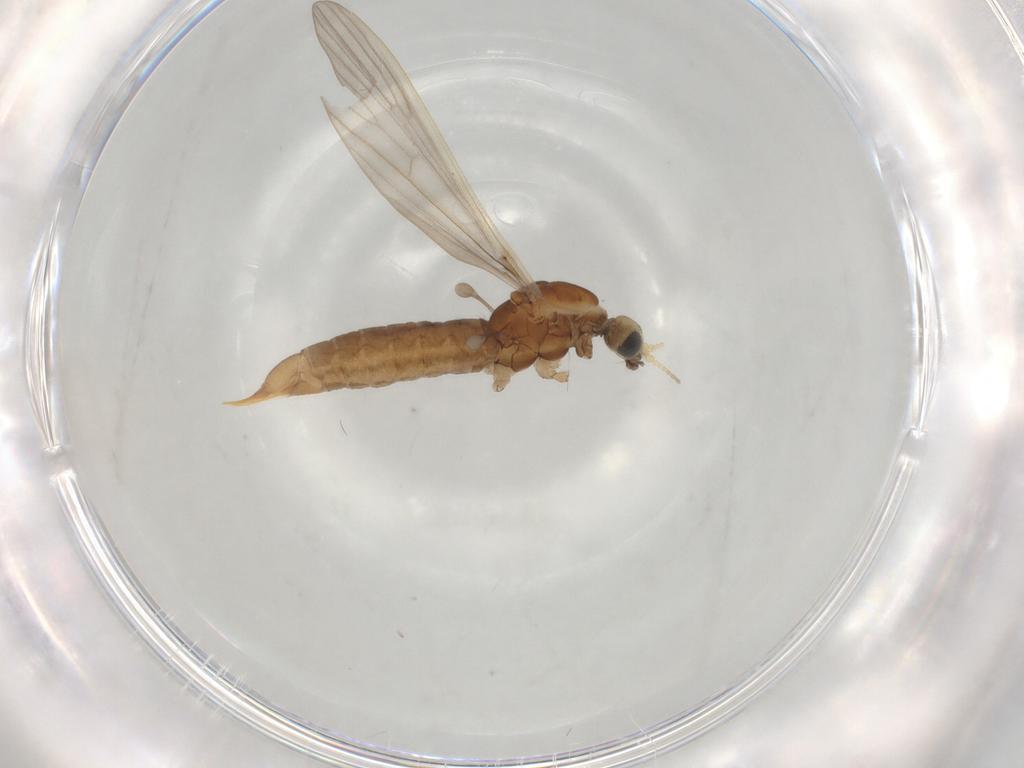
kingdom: Animalia
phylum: Arthropoda
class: Insecta
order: Diptera
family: Limoniidae
